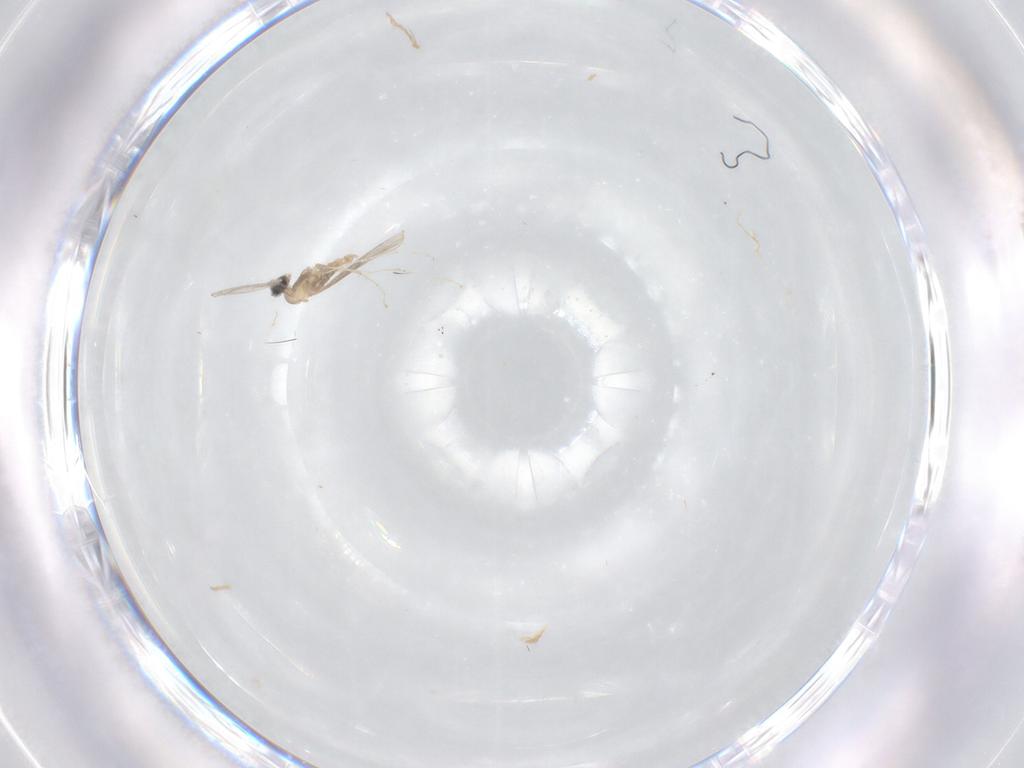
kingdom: Animalia
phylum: Arthropoda
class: Insecta
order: Diptera
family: Cecidomyiidae
